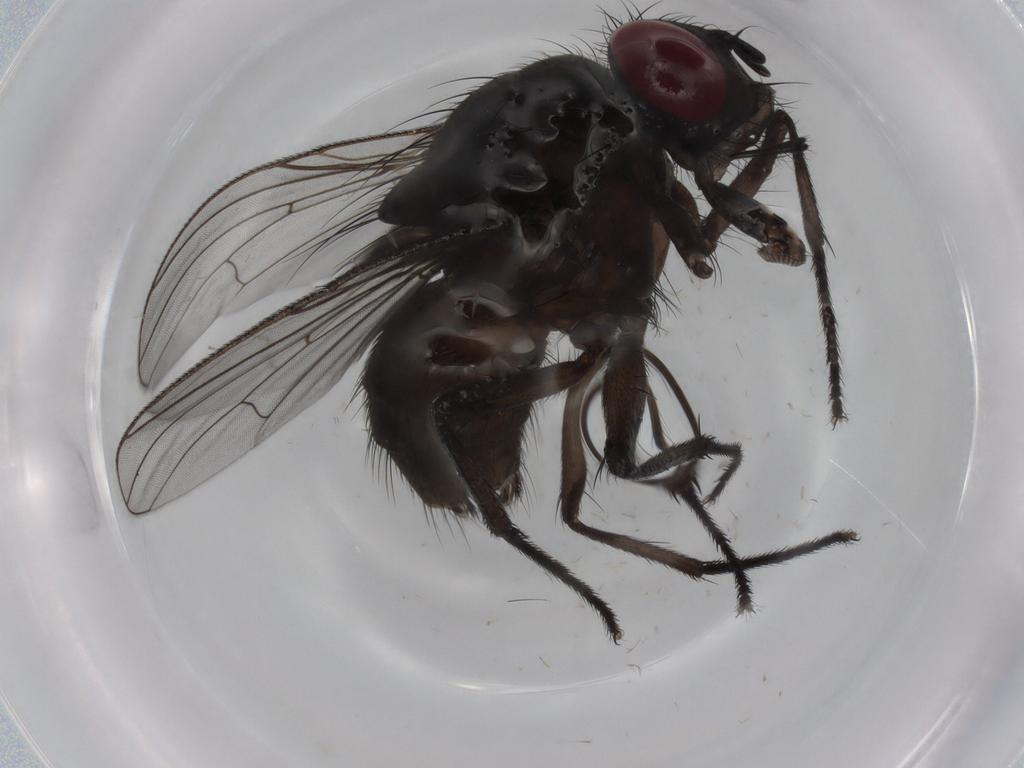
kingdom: Animalia
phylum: Arthropoda
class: Insecta
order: Diptera
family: Muscidae
